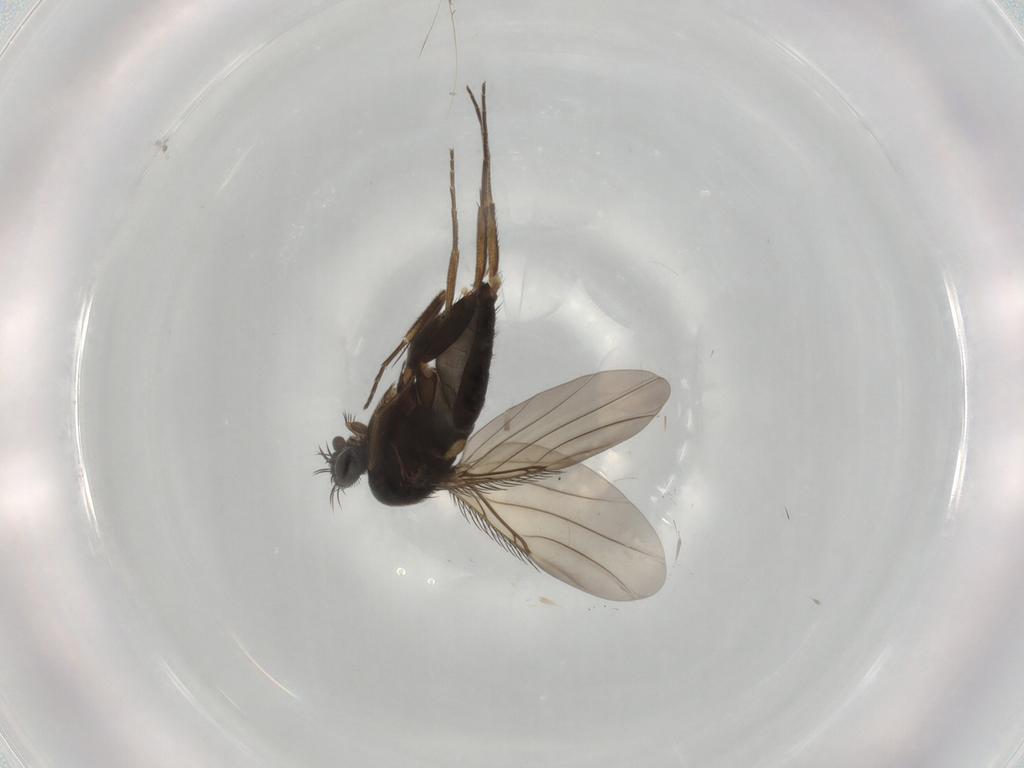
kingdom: Animalia
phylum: Arthropoda
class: Insecta
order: Diptera
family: Phoridae
